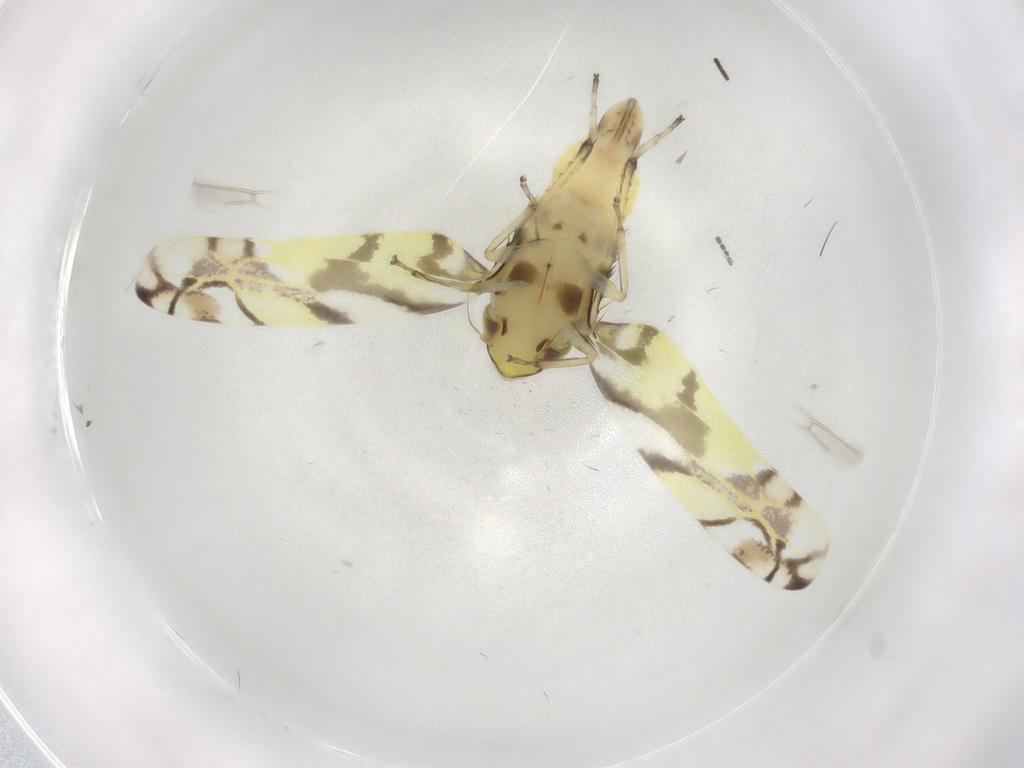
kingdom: Animalia
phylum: Arthropoda
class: Insecta
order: Hemiptera
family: Cicadellidae
